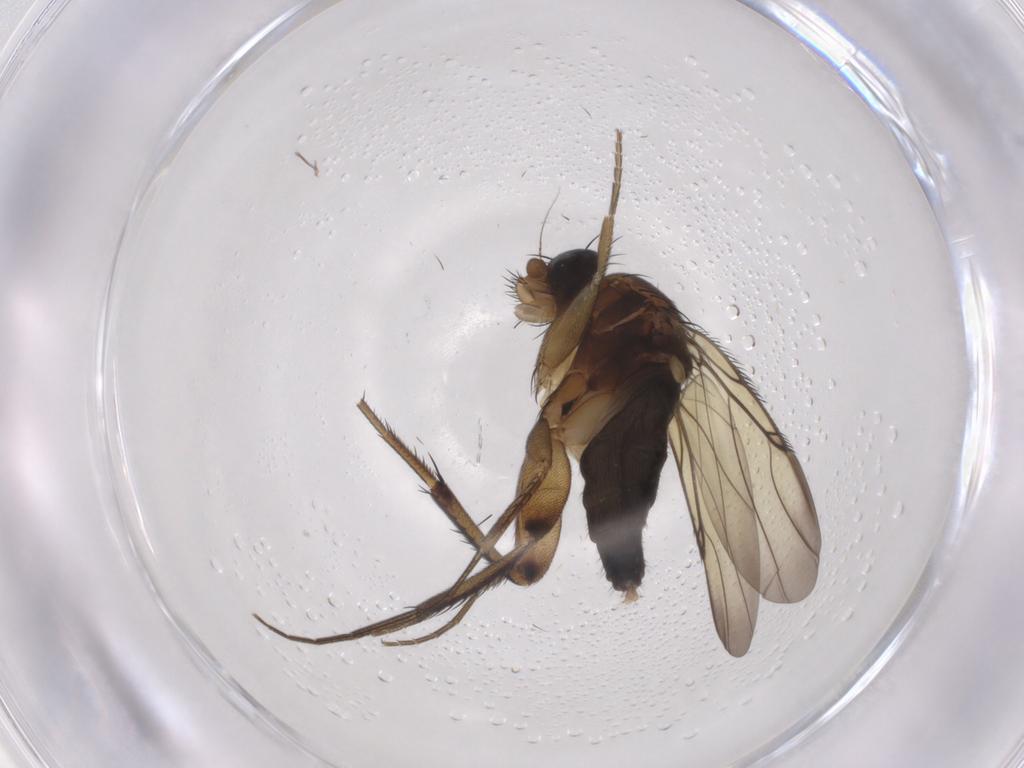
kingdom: Animalia
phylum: Arthropoda
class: Insecta
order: Diptera
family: Phoridae
